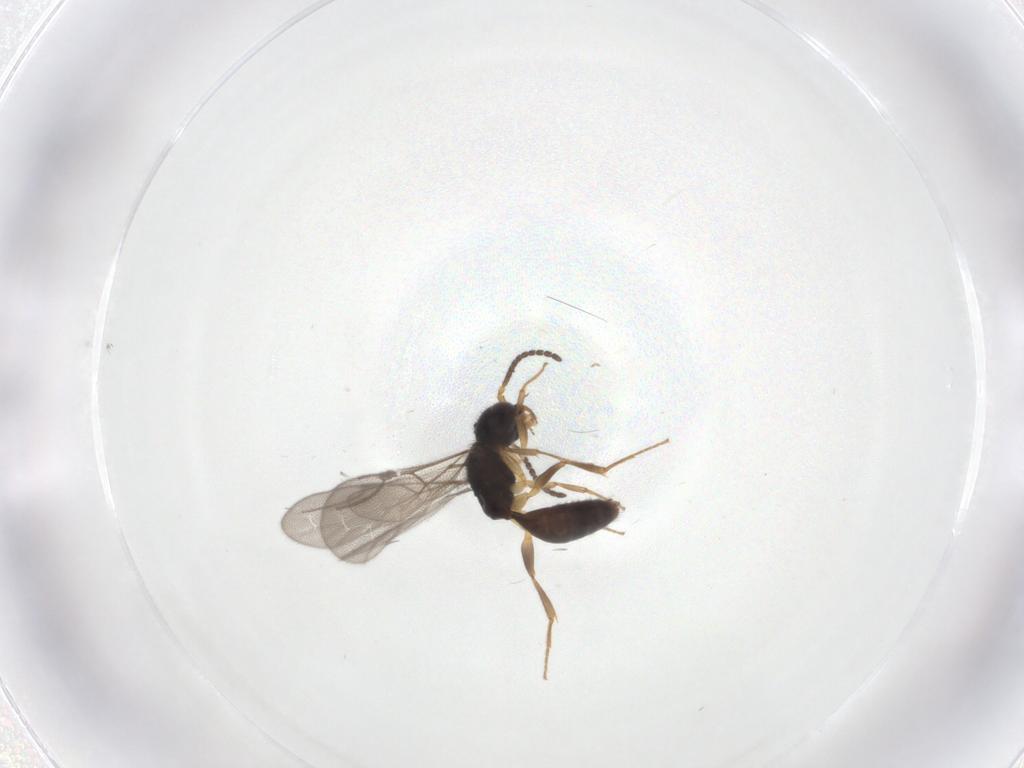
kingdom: Animalia
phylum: Arthropoda
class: Insecta
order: Hymenoptera
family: Bethylidae
